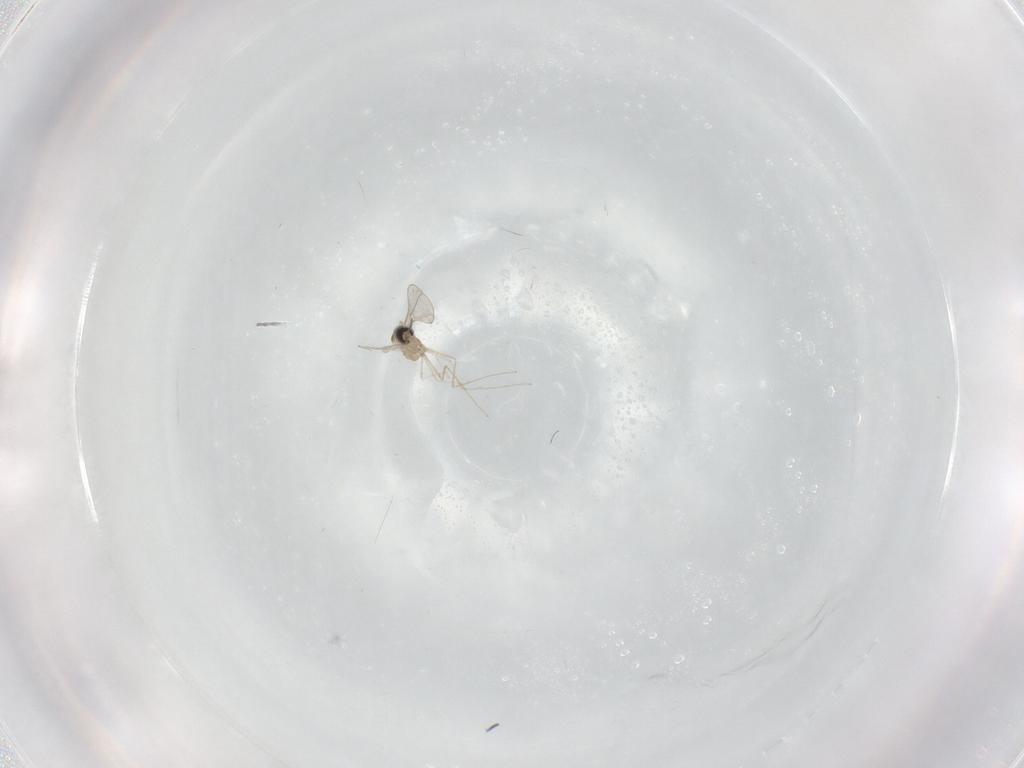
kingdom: Animalia
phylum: Arthropoda
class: Insecta
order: Diptera
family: Cecidomyiidae
